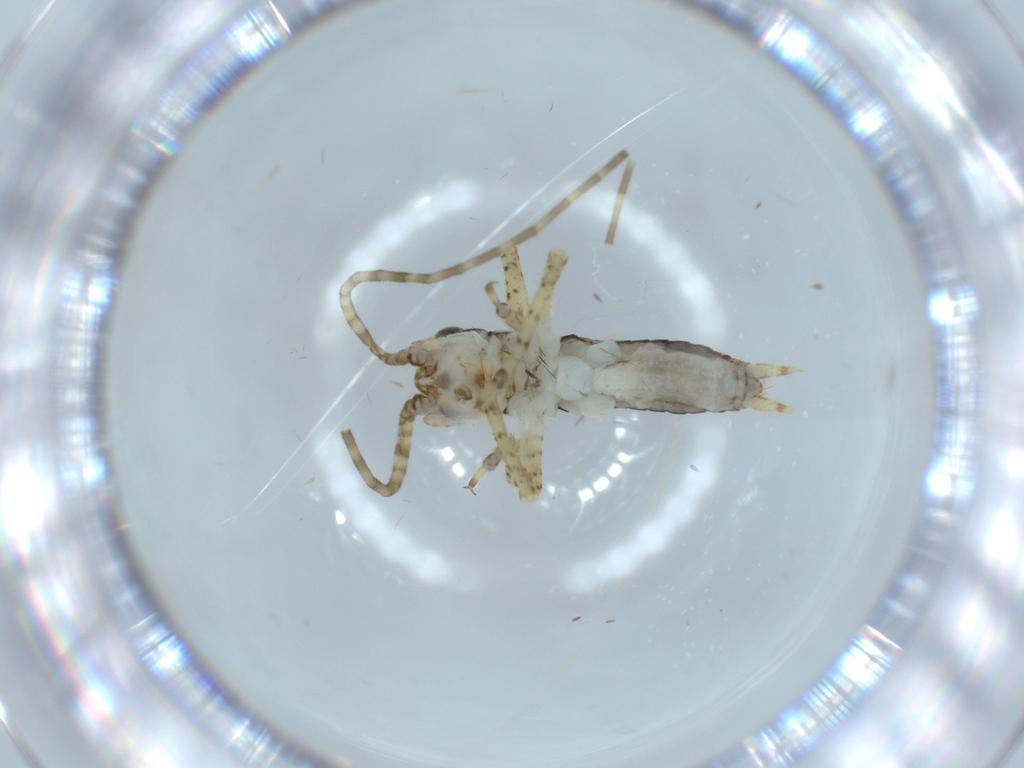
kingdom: Animalia
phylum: Arthropoda
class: Insecta
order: Orthoptera
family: Gryllidae
